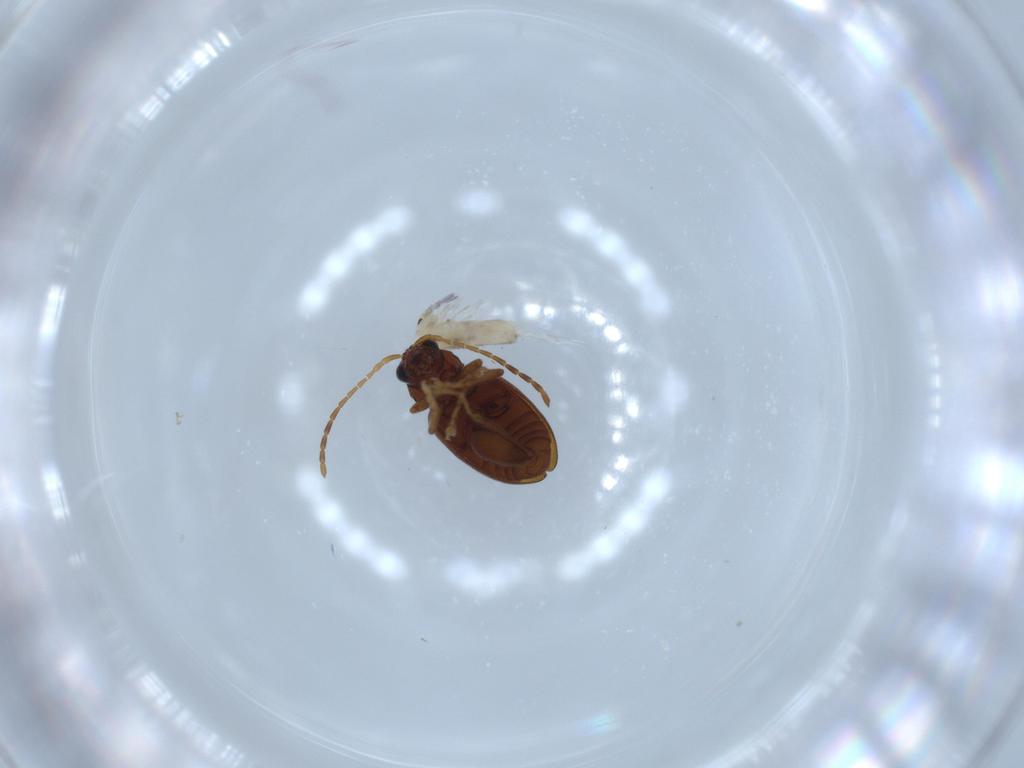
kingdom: Animalia
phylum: Arthropoda
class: Insecta
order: Coleoptera
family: Chrysomelidae
